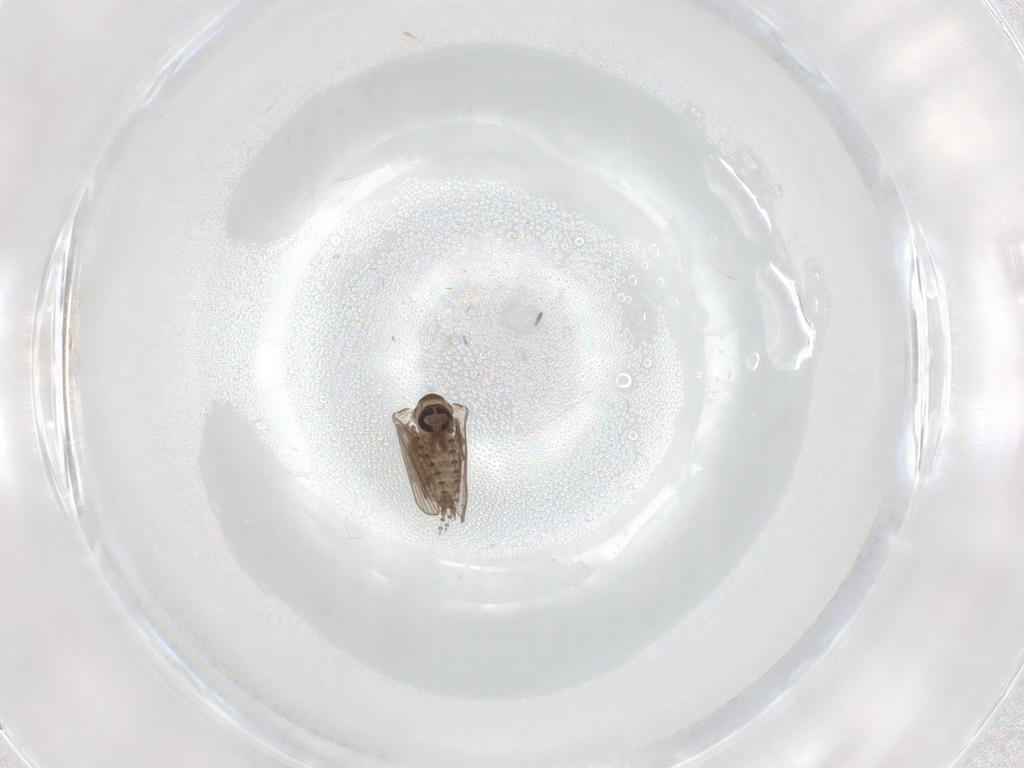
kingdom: Animalia
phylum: Arthropoda
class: Insecta
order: Diptera
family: Psychodidae
